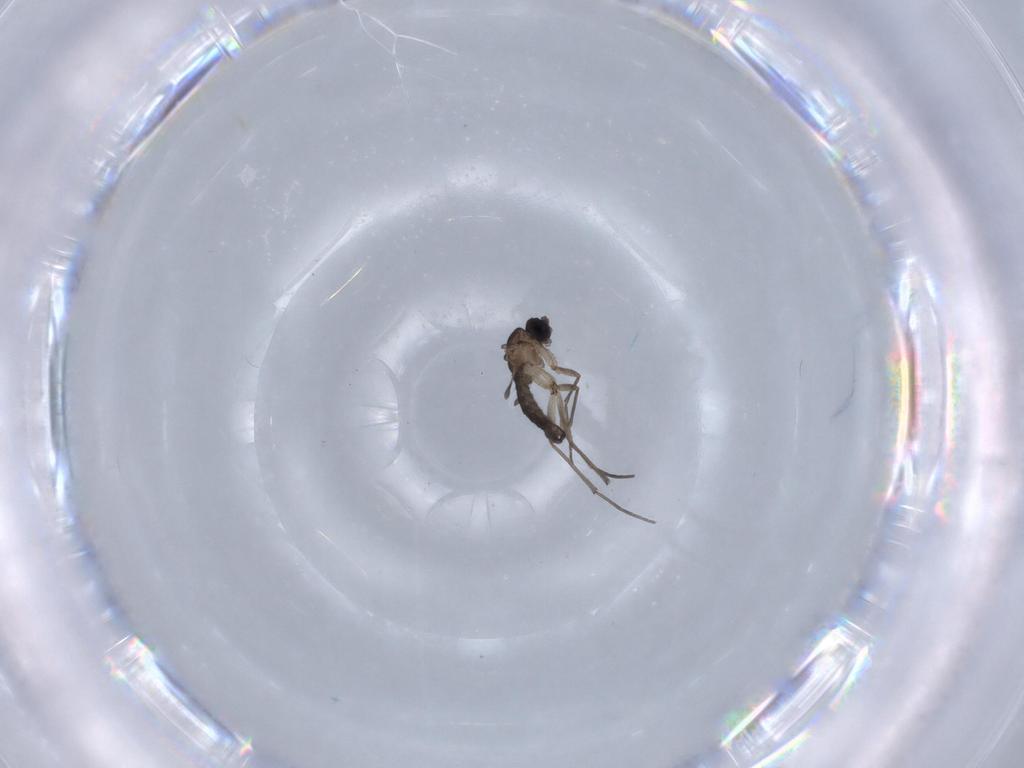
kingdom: Animalia
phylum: Arthropoda
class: Insecta
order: Diptera
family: Sciaridae
